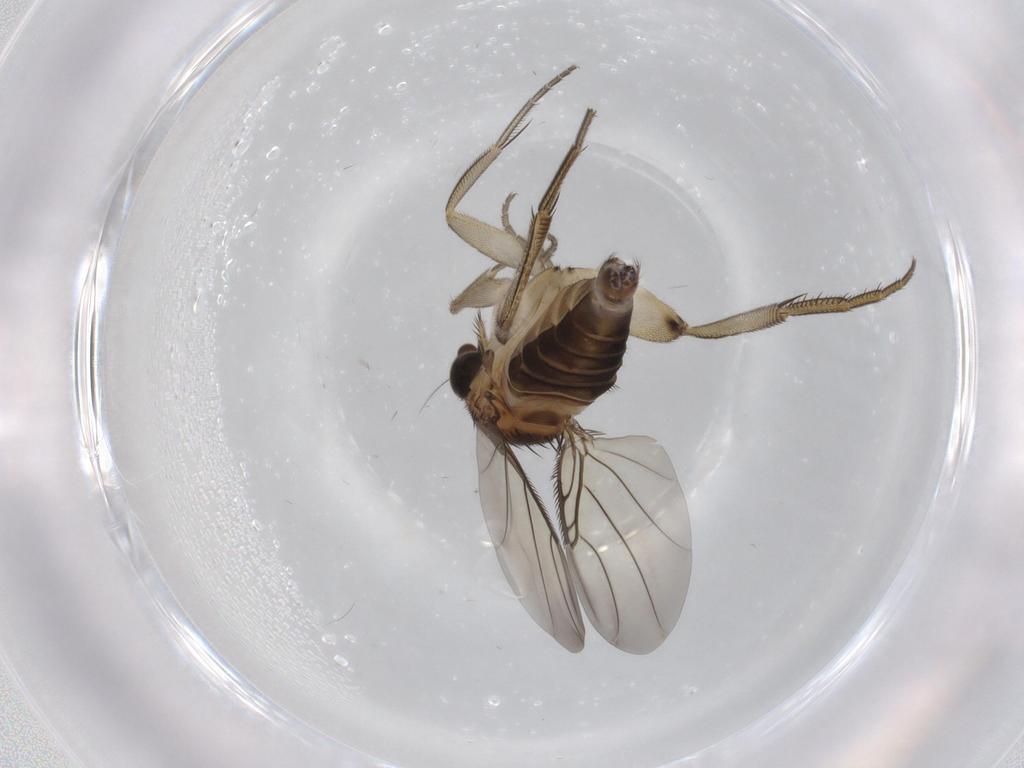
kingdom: Animalia
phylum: Arthropoda
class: Insecta
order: Diptera
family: Phoridae
